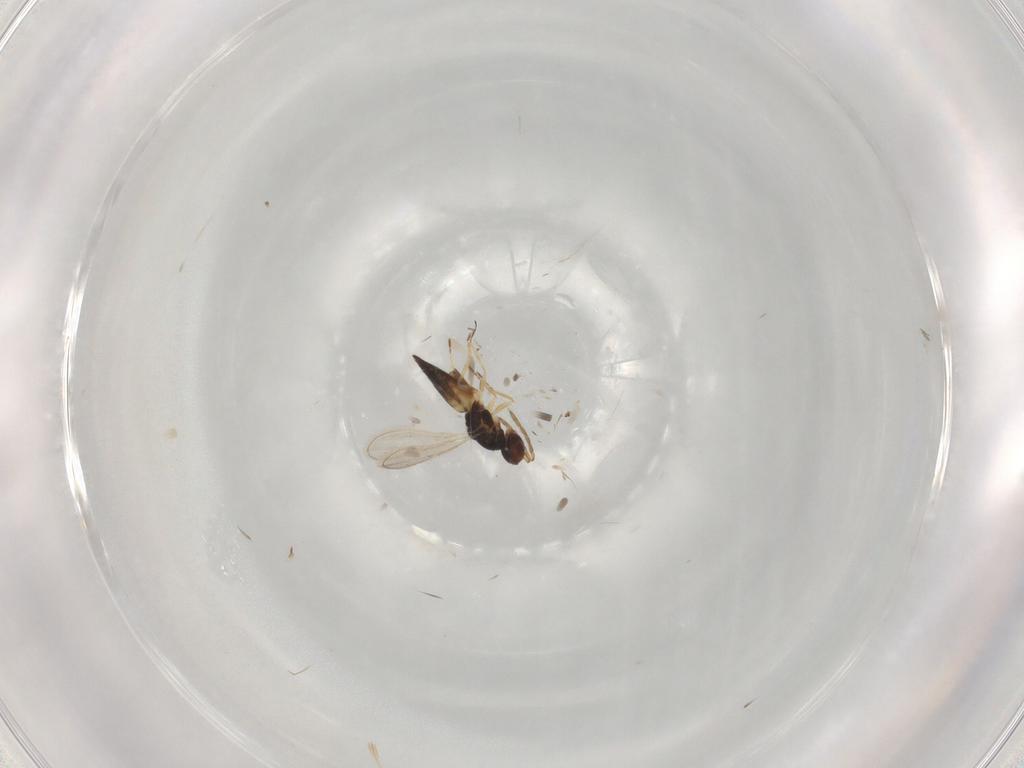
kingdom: Animalia
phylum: Arthropoda
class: Insecta
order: Hymenoptera
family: Eulophidae
